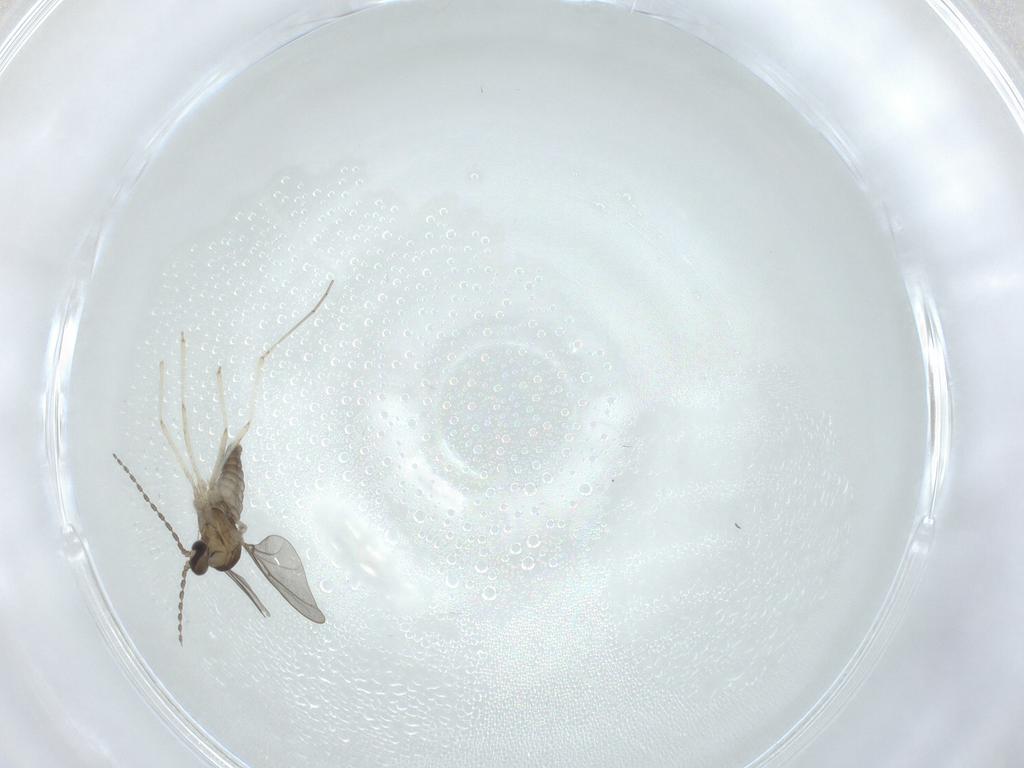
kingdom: Animalia
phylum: Arthropoda
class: Insecta
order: Diptera
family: Cecidomyiidae
